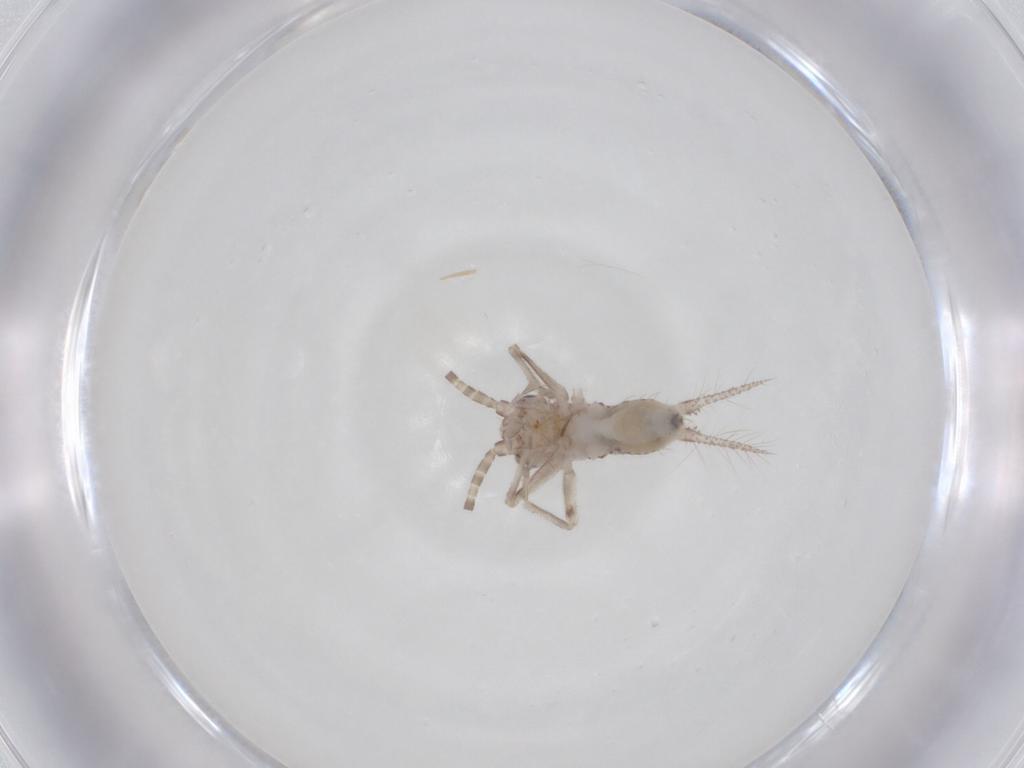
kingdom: Animalia
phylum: Arthropoda
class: Insecta
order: Orthoptera
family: Trigonidiidae
